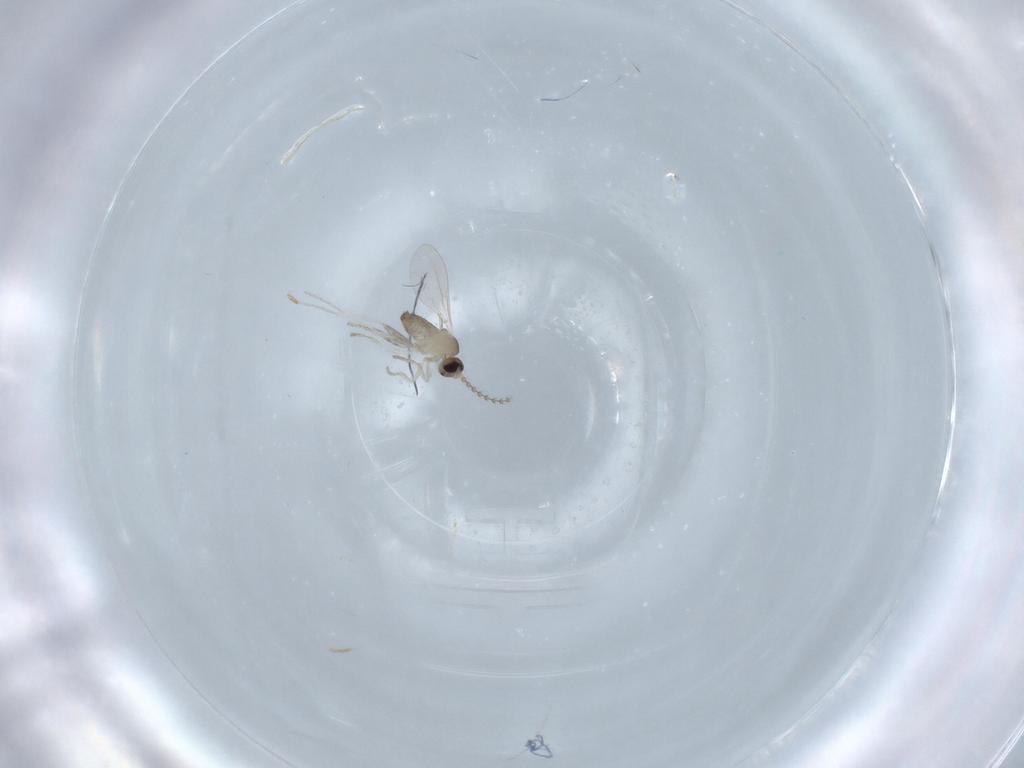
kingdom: Animalia
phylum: Arthropoda
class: Insecta
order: Diptera
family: Cecidomyiidae
